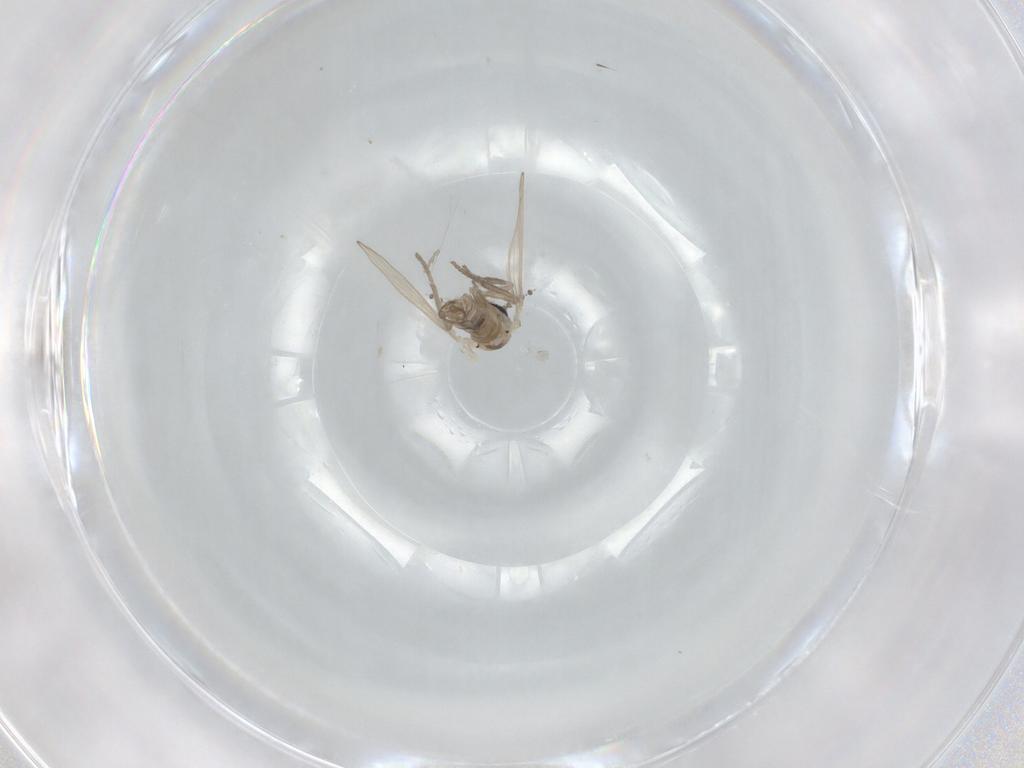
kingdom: Animalia
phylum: Arthropoda
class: Insecta
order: Diptera
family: Psychodidae
